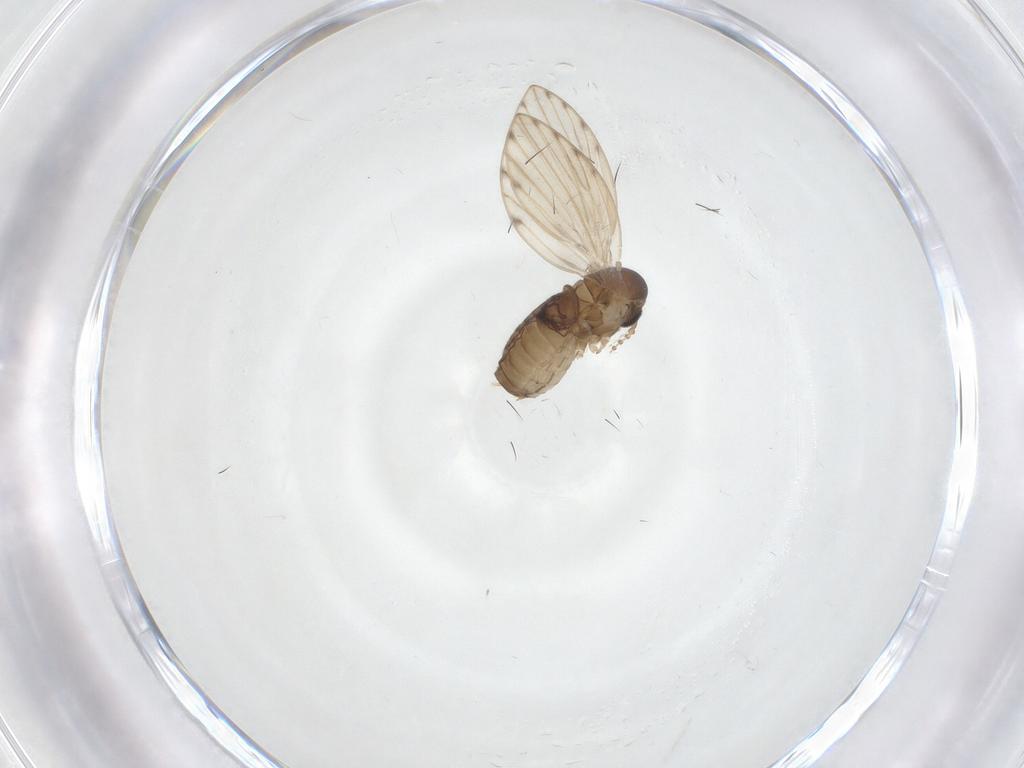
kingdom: Animalia
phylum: Arthropoda
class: Insecta
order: Diptera
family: Psychodidae
